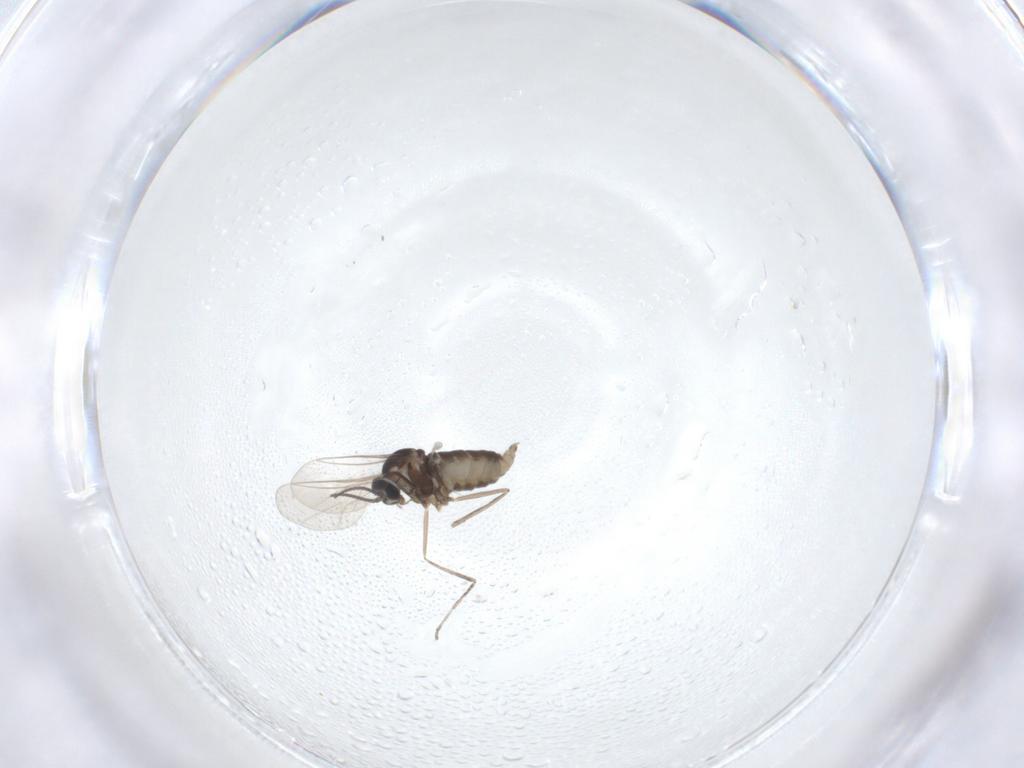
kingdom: Animalia
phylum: Arthropoda
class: Insecta
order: Diptera
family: Cecidomyiidae
